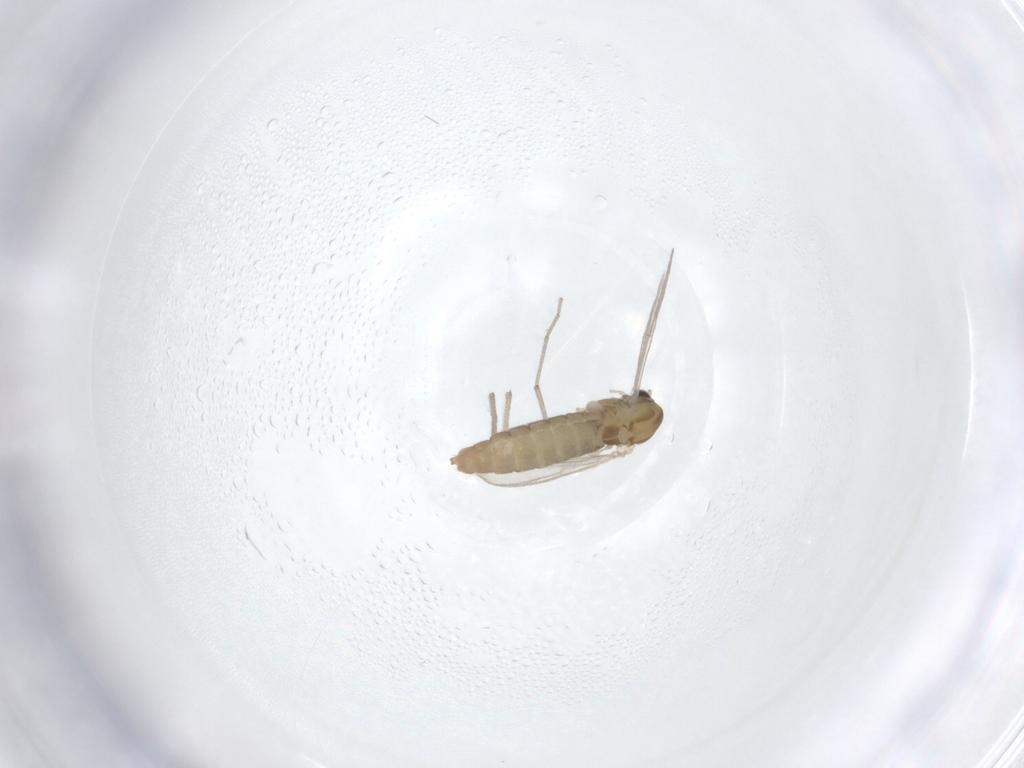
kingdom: Animalia
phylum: Arthropoda
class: Insecta
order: Diptera
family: Chironomidae
